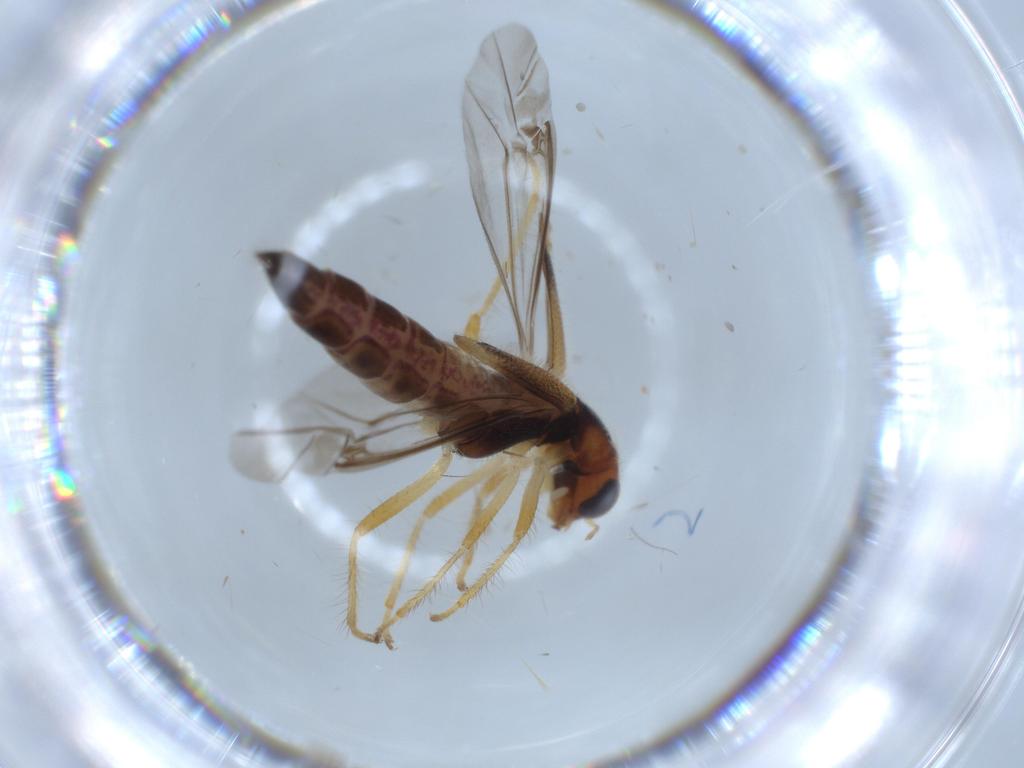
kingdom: Animalia
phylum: Arthropoda
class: Insecta
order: Coleoptera
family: Cleridae
